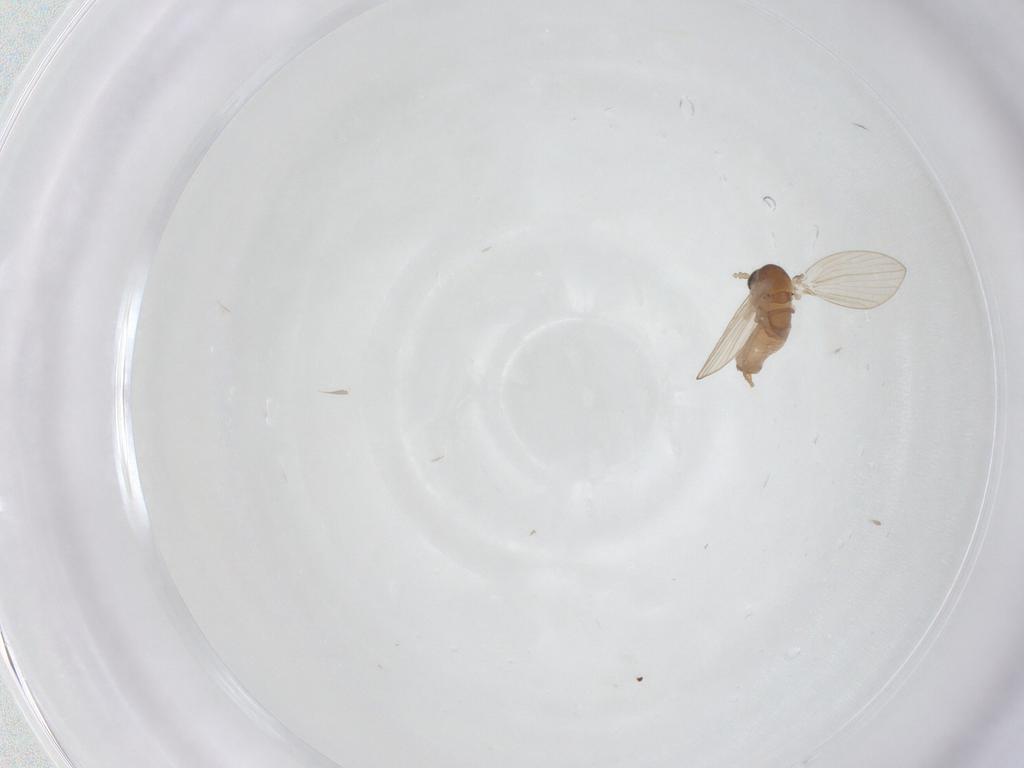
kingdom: Animalia
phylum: Arthropoda
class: Insecta
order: Diptera
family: Psychodidae
